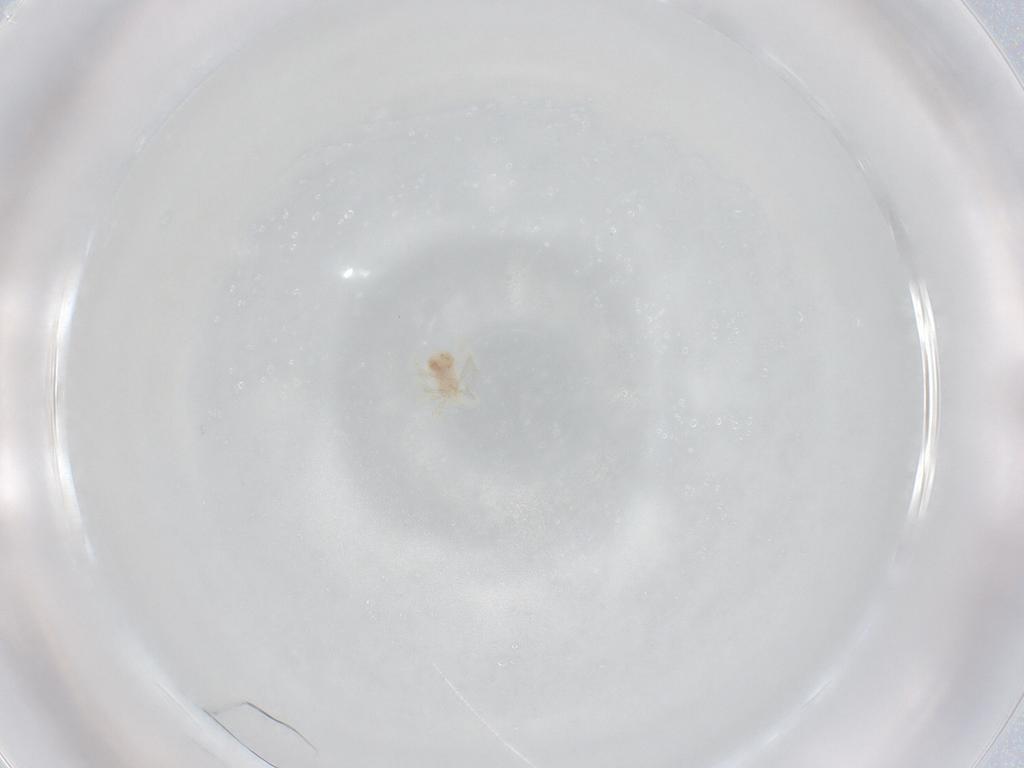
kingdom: Animalia
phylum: Arthropoda
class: Arachnida
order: Trombidiformes
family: Anystidae
